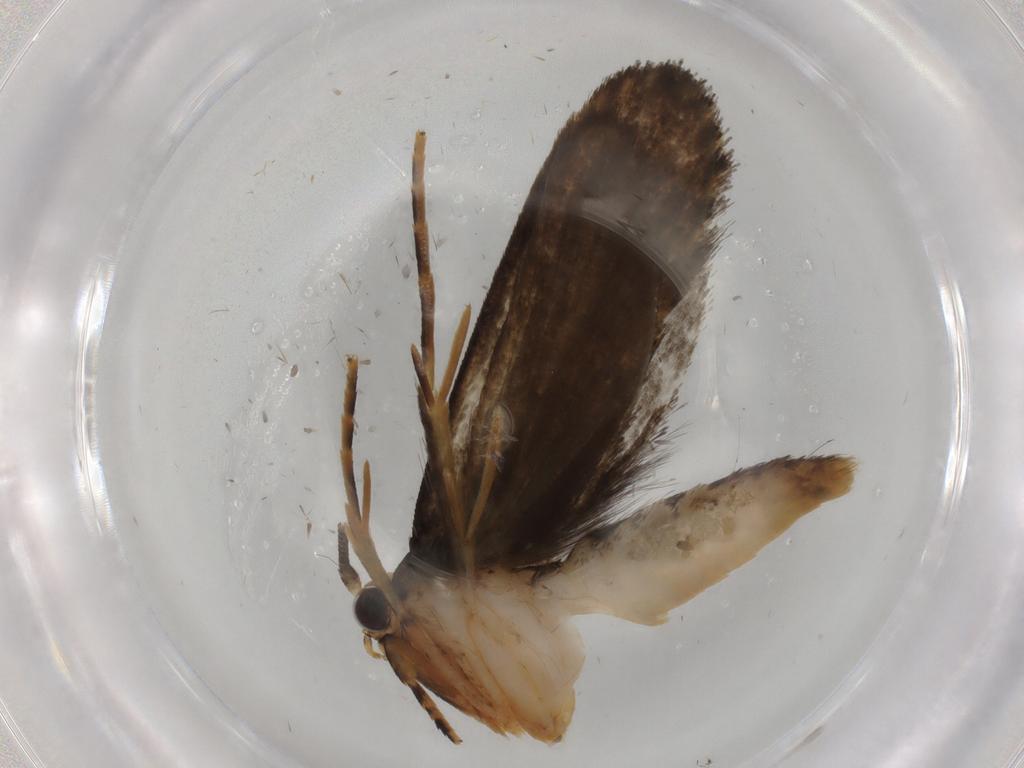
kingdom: Animalia
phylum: Arthropoda
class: Insecta
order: Lepidoptera
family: Tineidae
